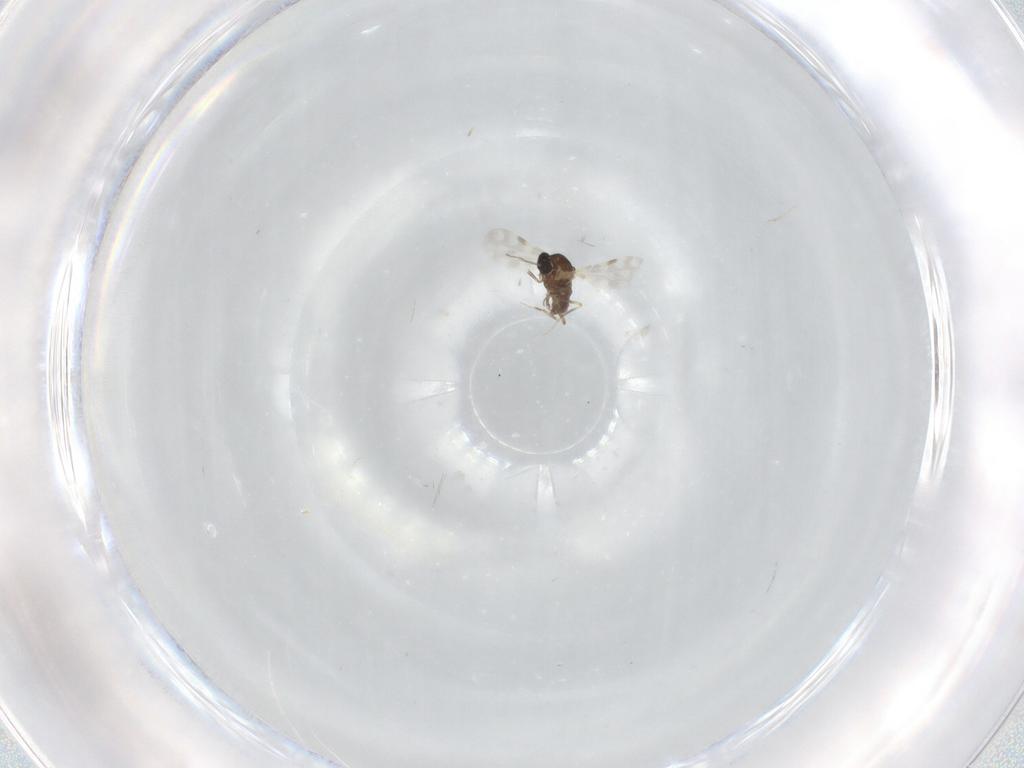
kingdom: Animalia
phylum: Arthropoda
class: Insecta
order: Diptera
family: Ceratopogonidae
